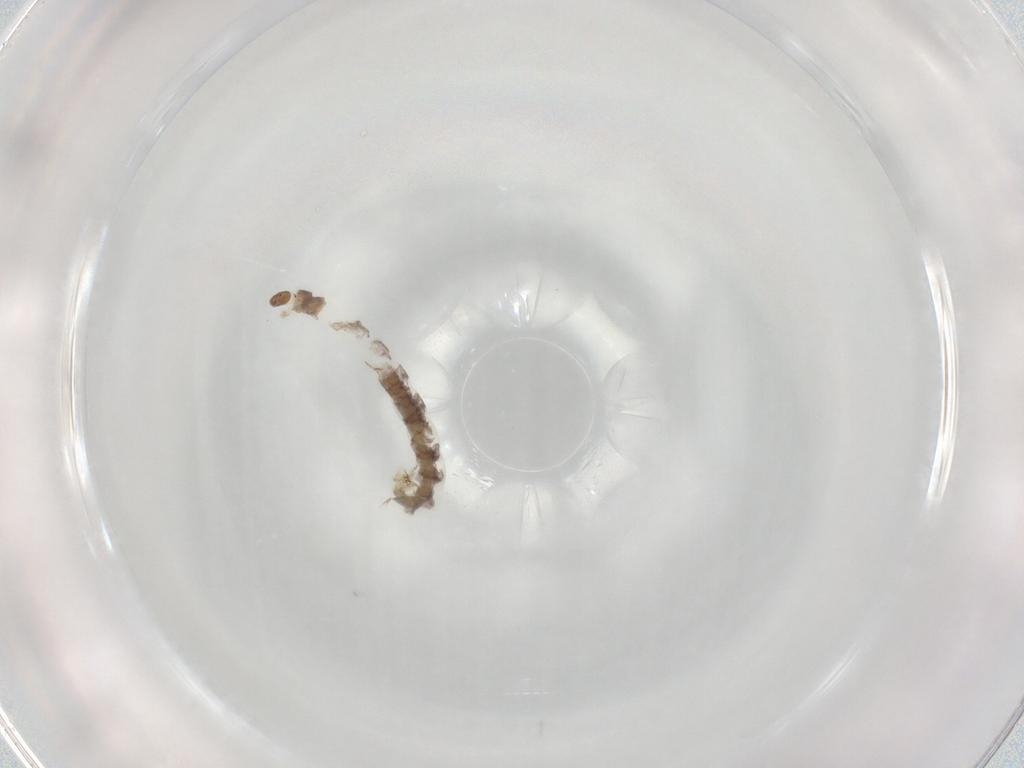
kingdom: Animalia
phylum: Arthropoda
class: Insecta
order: Diptera
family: Chironomidae
